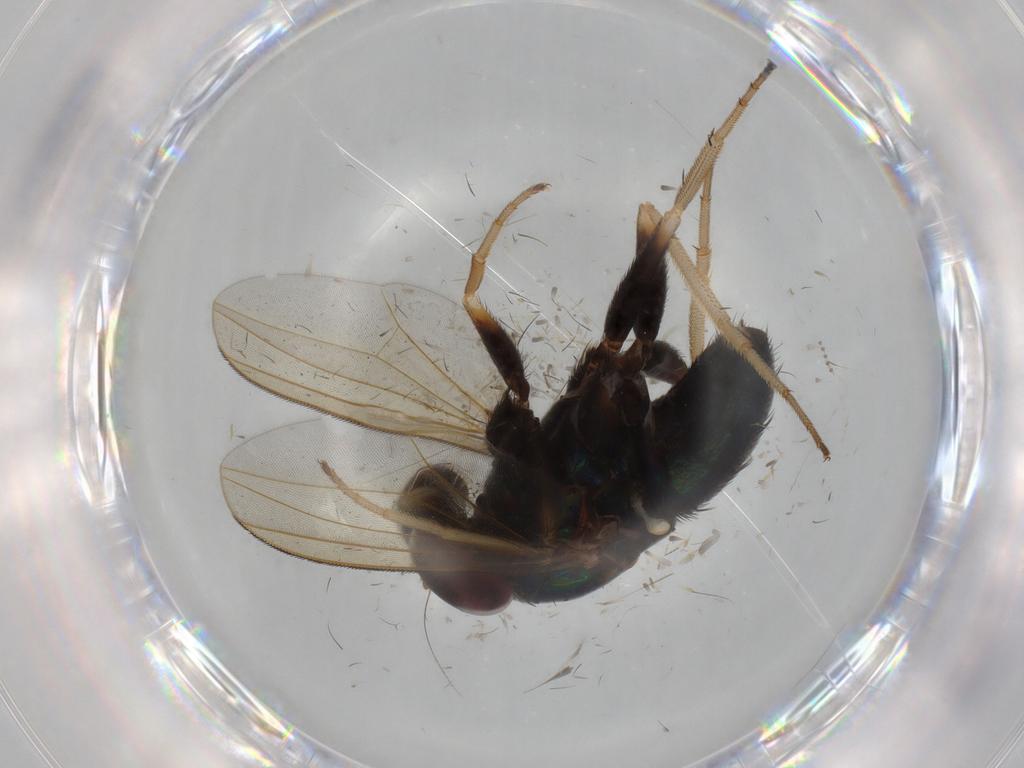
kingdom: Animalia
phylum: Arthropoda
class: Insecta
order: Diptera
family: Dolichopodidae
